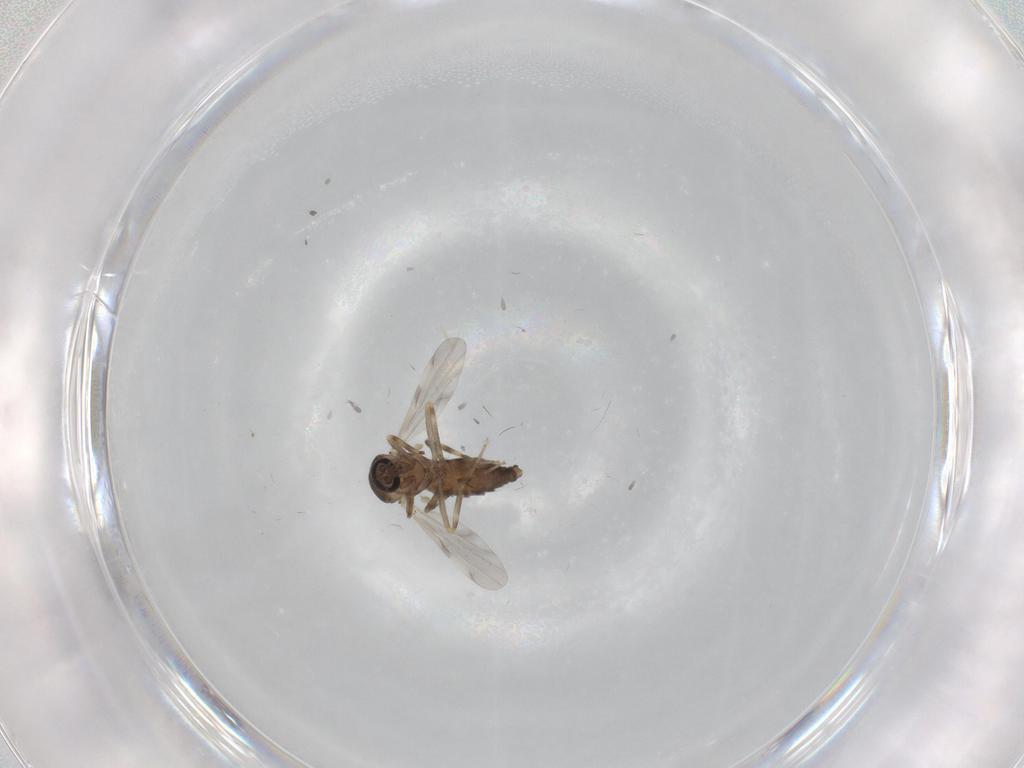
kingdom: Animalia
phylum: Arthropoda
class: Insecta
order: Diptera
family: Ceratopogonidae
